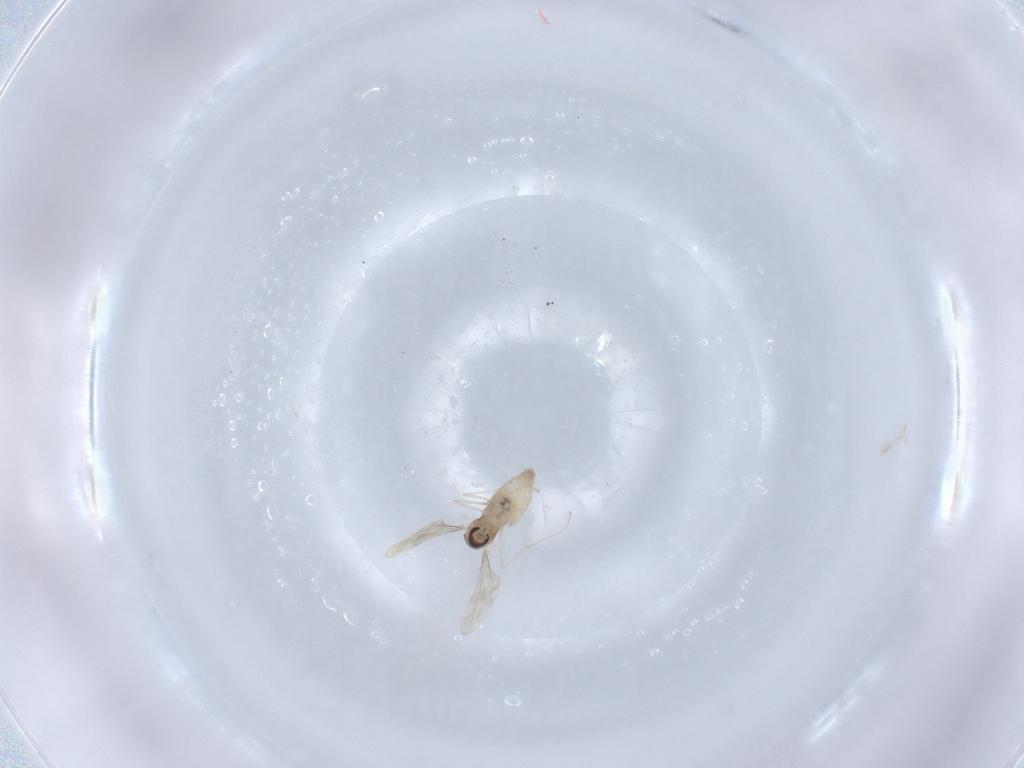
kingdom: Animalia
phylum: Arthropoda
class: Insecta
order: Diptera
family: Cecidomyiidae
